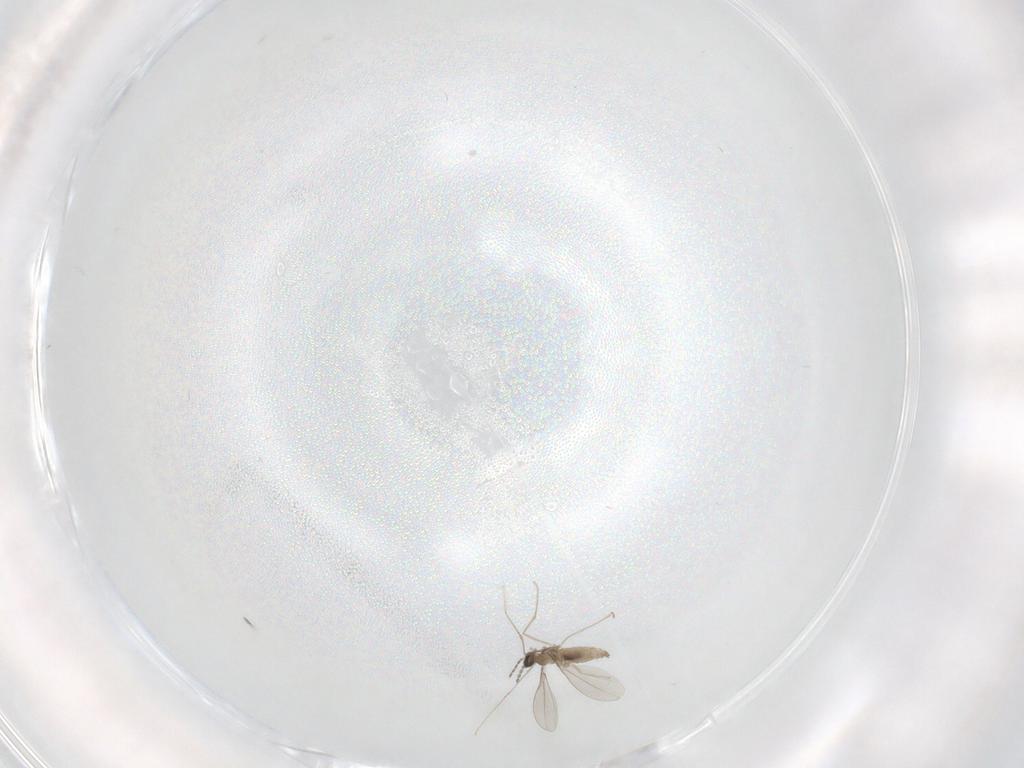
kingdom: Animalia
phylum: Arthropoda
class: Insecta
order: Diptera
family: Cecidomyiidae
